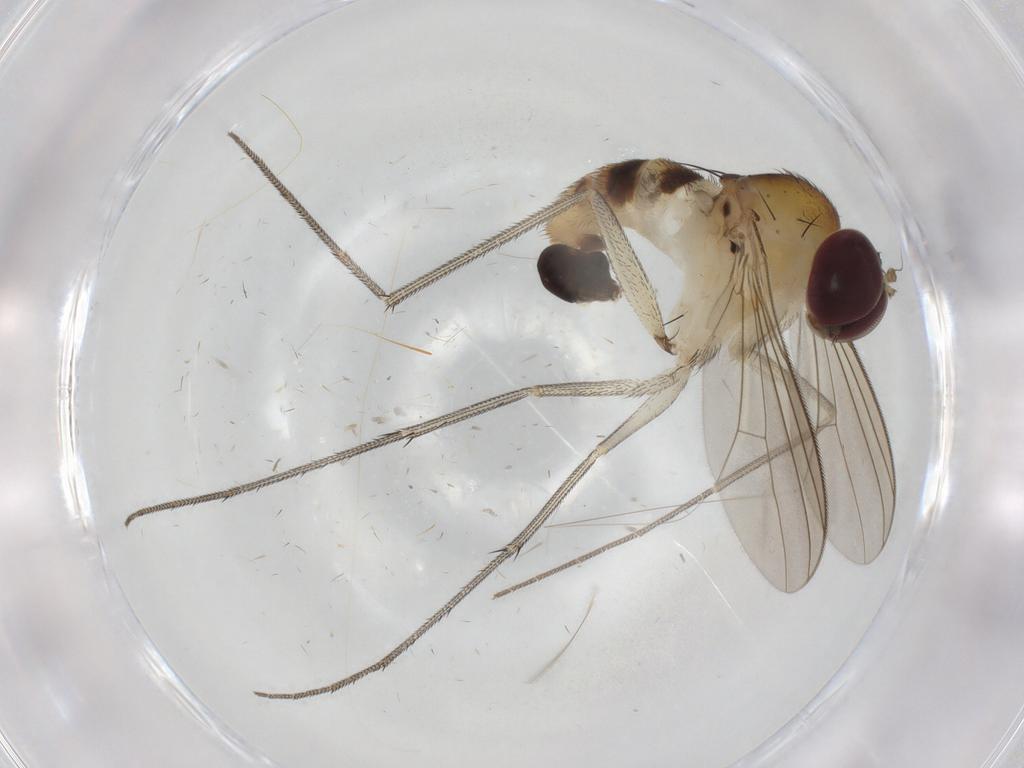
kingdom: Animalia
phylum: Arthropoda
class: Insecta
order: Diptera
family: Dolichopodidae
